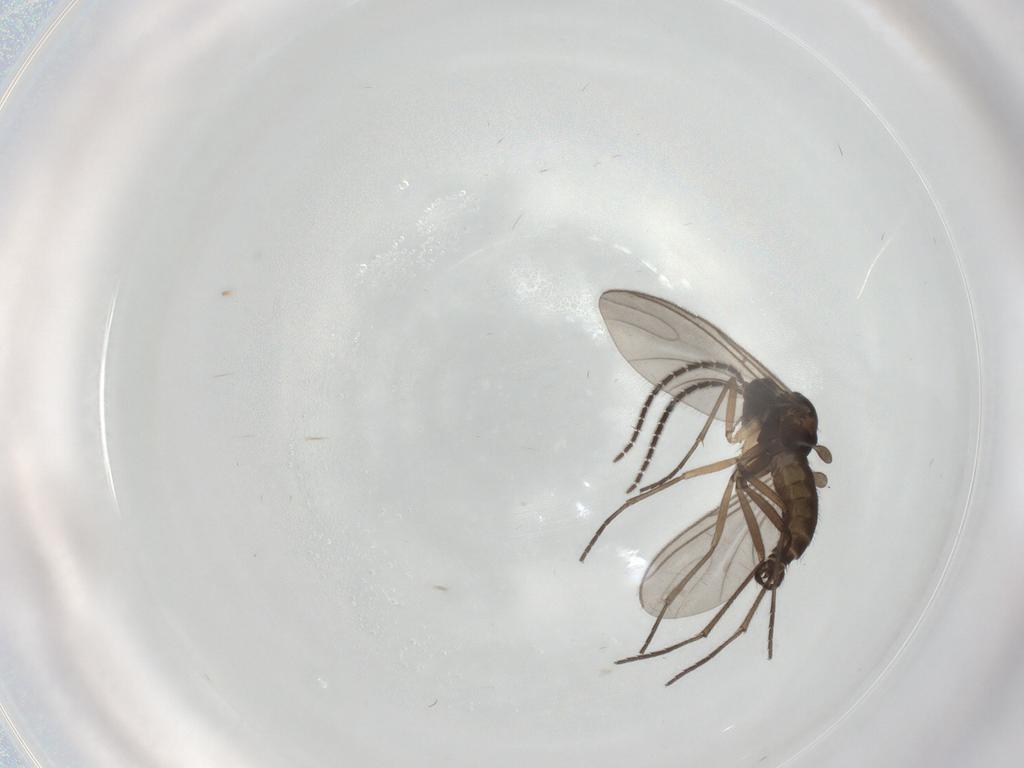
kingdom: Animalia
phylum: Arthropoda
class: Insecta
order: Diptera
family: Sciaridae
